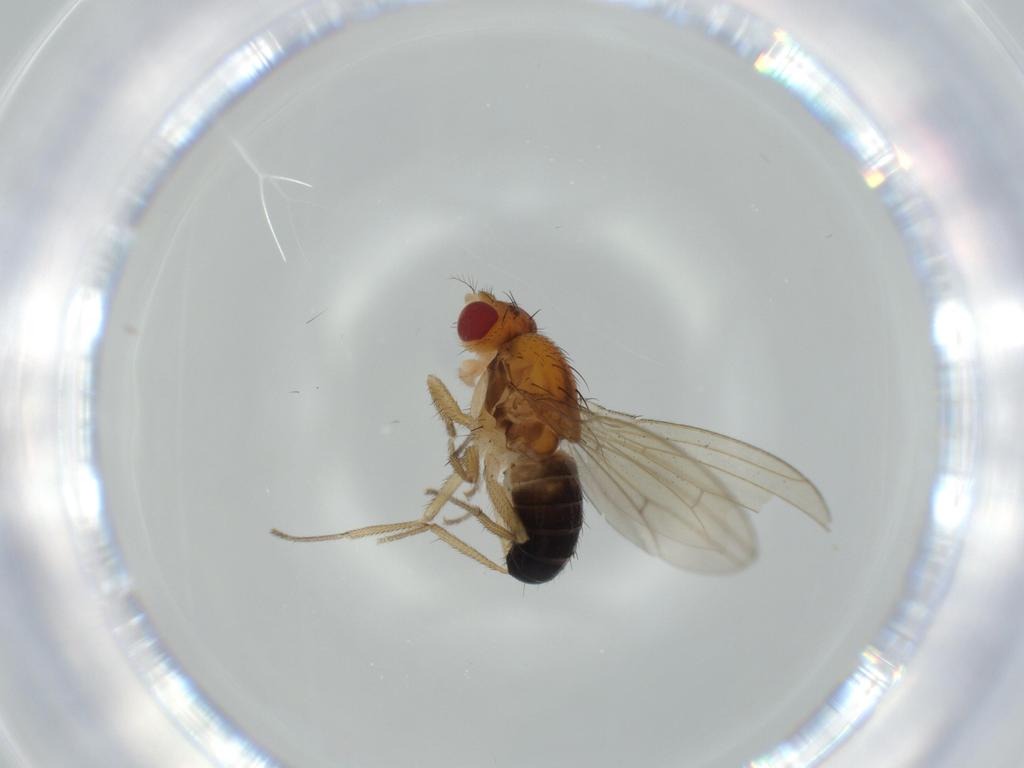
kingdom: Animalia
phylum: Arthropoda
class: Insecta
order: Diptera
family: Drosophilidae
